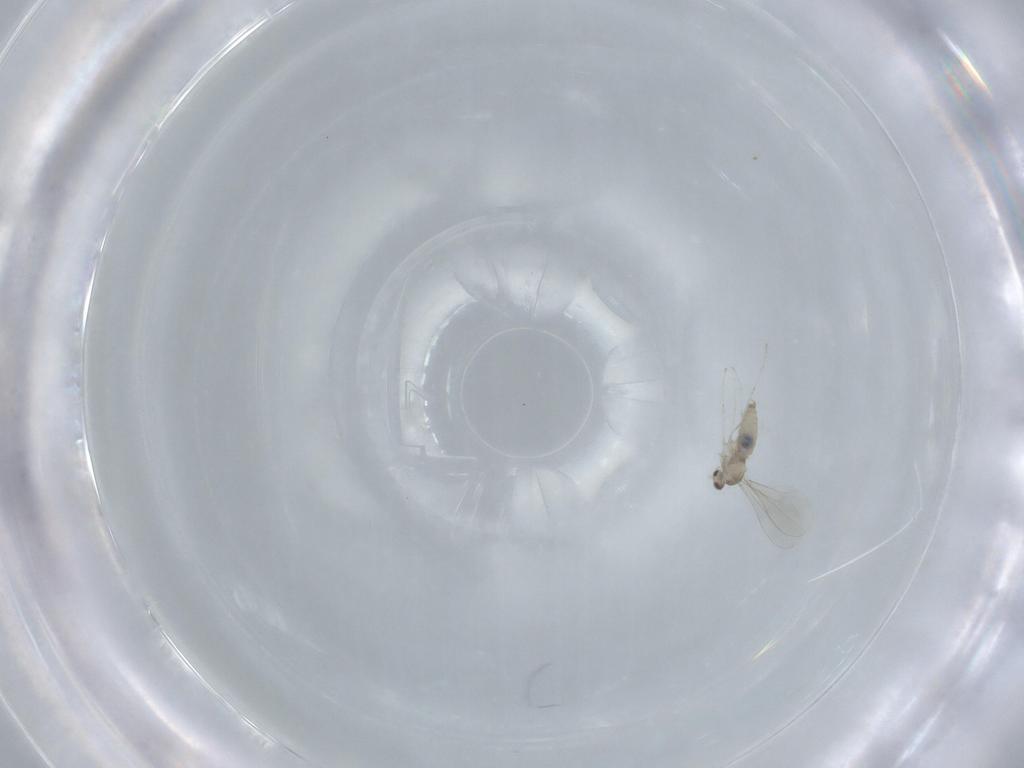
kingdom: Animalia
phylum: Arthropoda
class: Insecta
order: Diptera
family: Cecidomyiidae
